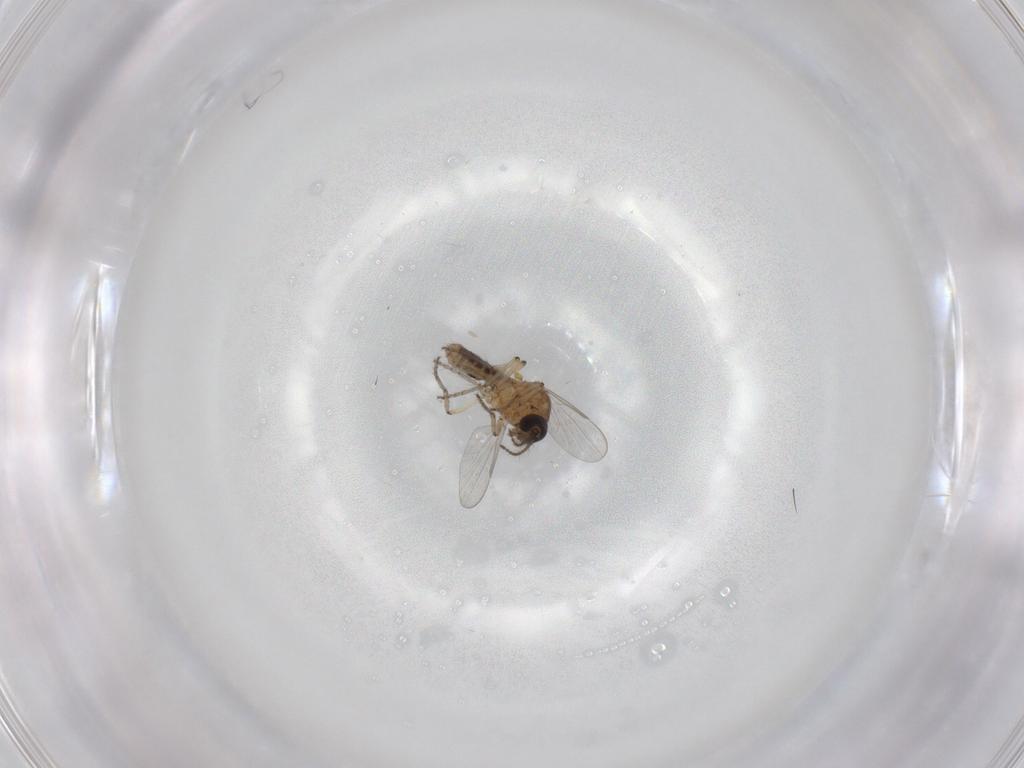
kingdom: Animalia
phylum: Arthropoda
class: Insecta
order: Diptera
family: Ceratopogonidae
